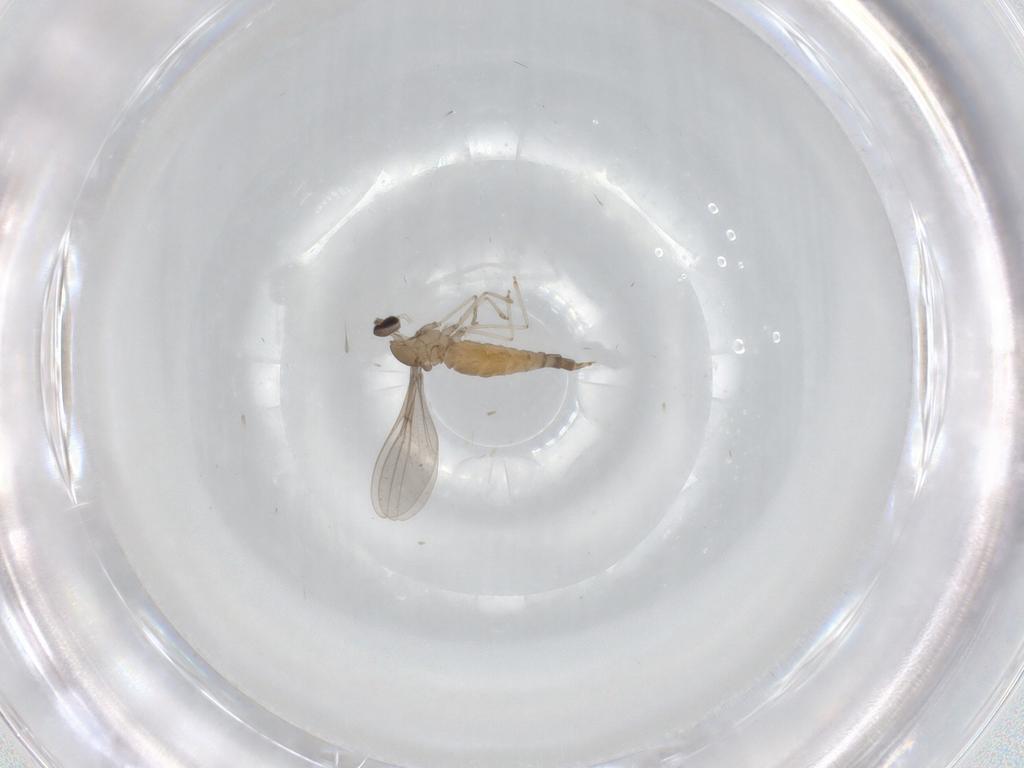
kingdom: Animalia
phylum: Arthropoda
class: Insecta
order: Diptera
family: Cecidomyiidae
